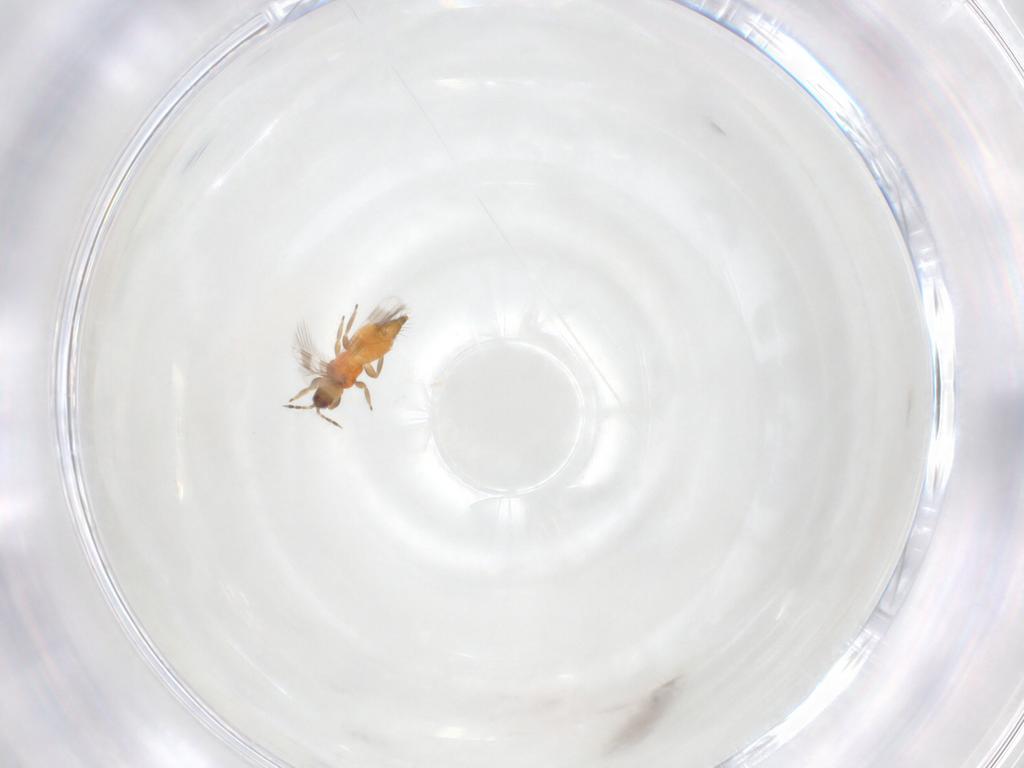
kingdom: Animalia
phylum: Arthropoda
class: Insecta
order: Thysanoptera
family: Aeolothripidae
